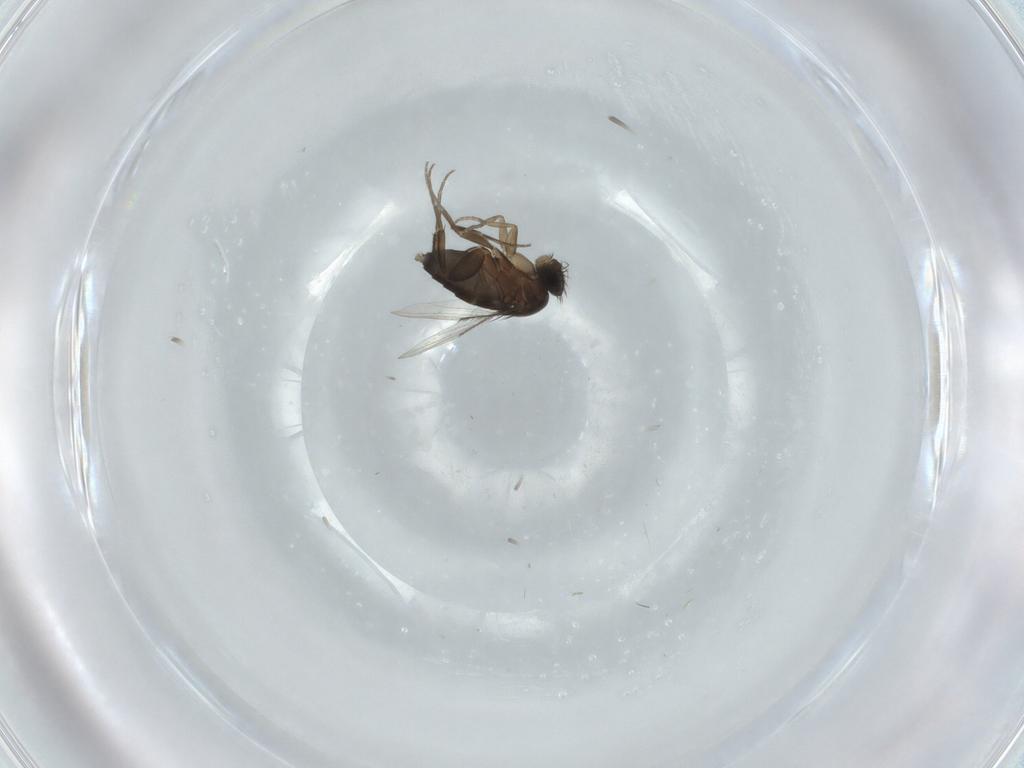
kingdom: Animalia
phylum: Arthropoda
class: Insecta
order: Diptera
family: Phoridae
